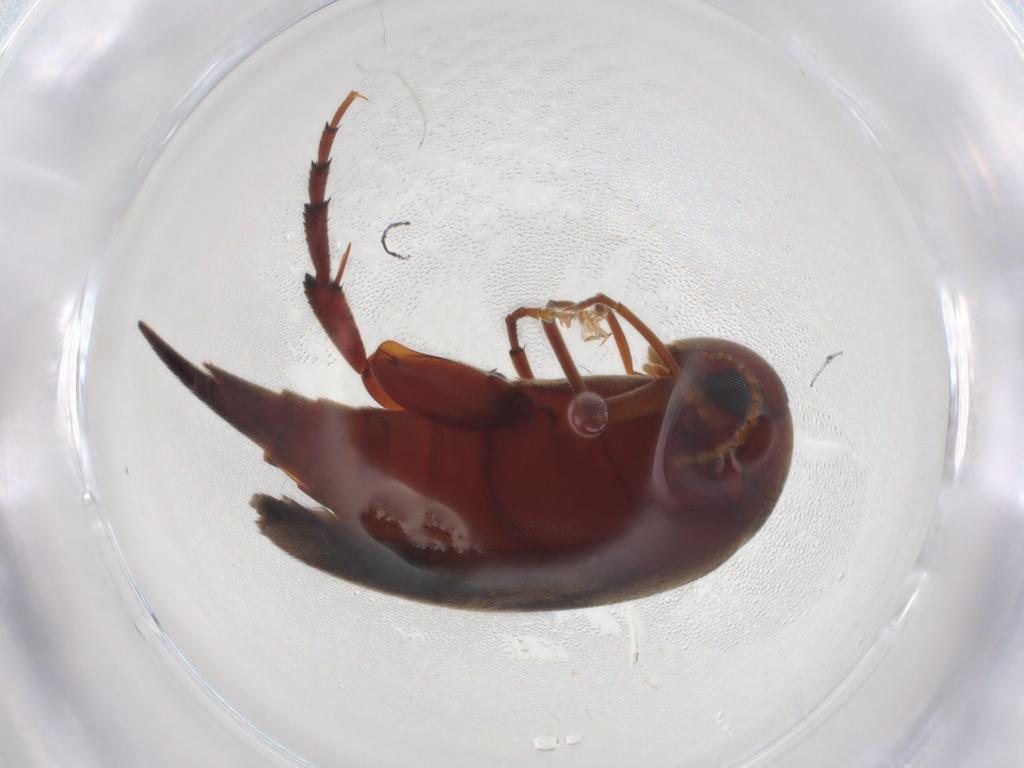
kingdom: Animalia
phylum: Arthropoda
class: Insecta
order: Coleoptera
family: Mordellidae
